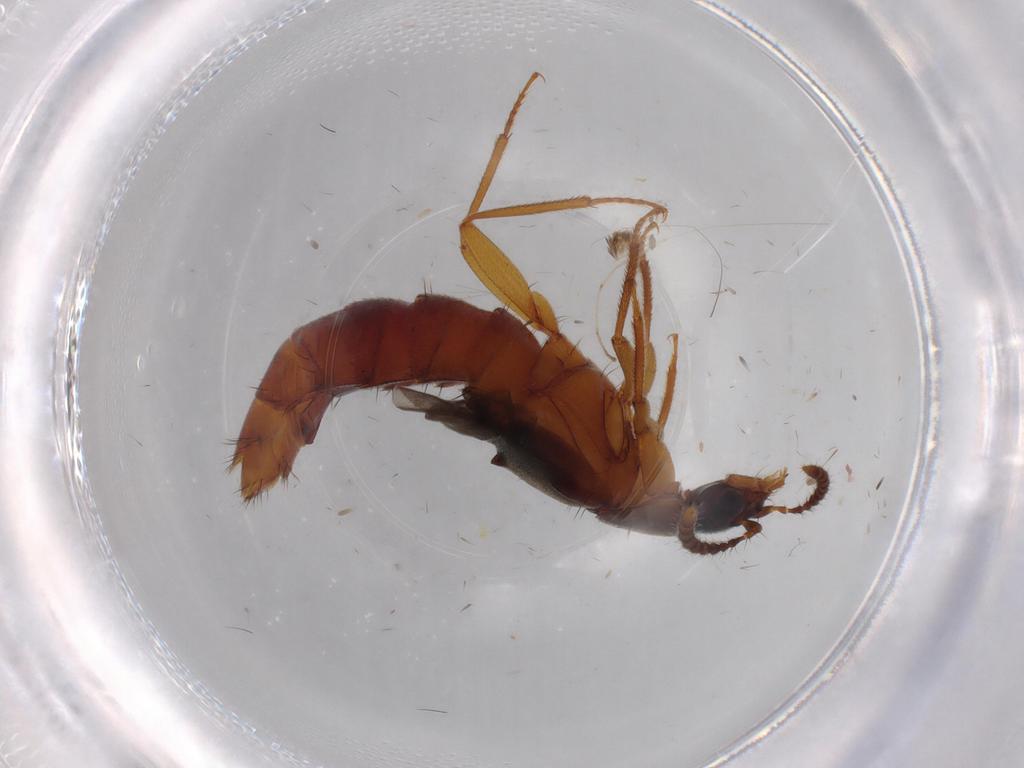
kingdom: Animalia
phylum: Arthropoda
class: Insecta
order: Coleoptera
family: Staphylinidae
